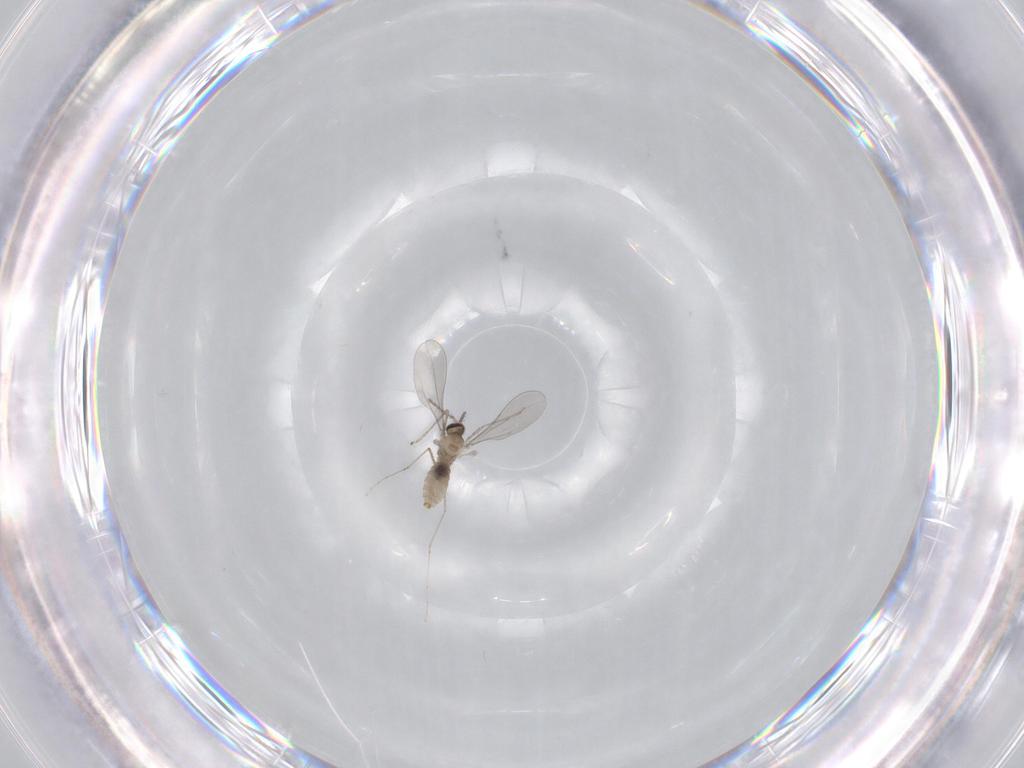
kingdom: Animalia
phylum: Arthropoda
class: Insecta
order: Diptera
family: Cecidomyiidae
